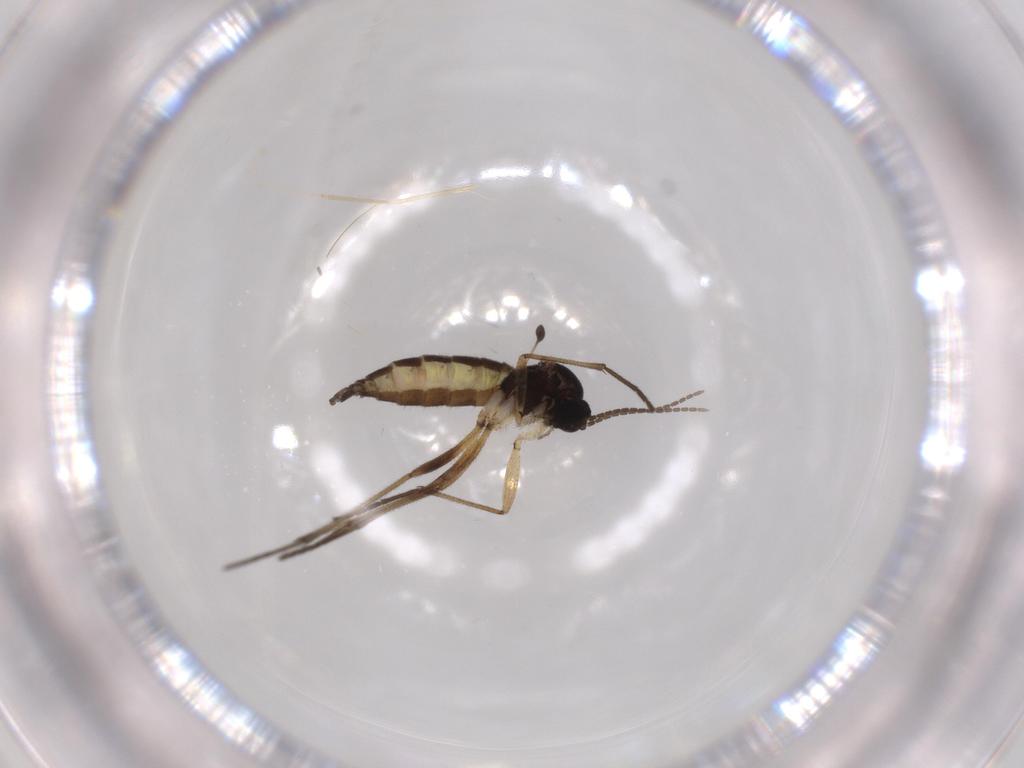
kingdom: Animalia
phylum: Arthropoda
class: Insecta
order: Diptera
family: Sciaridae
